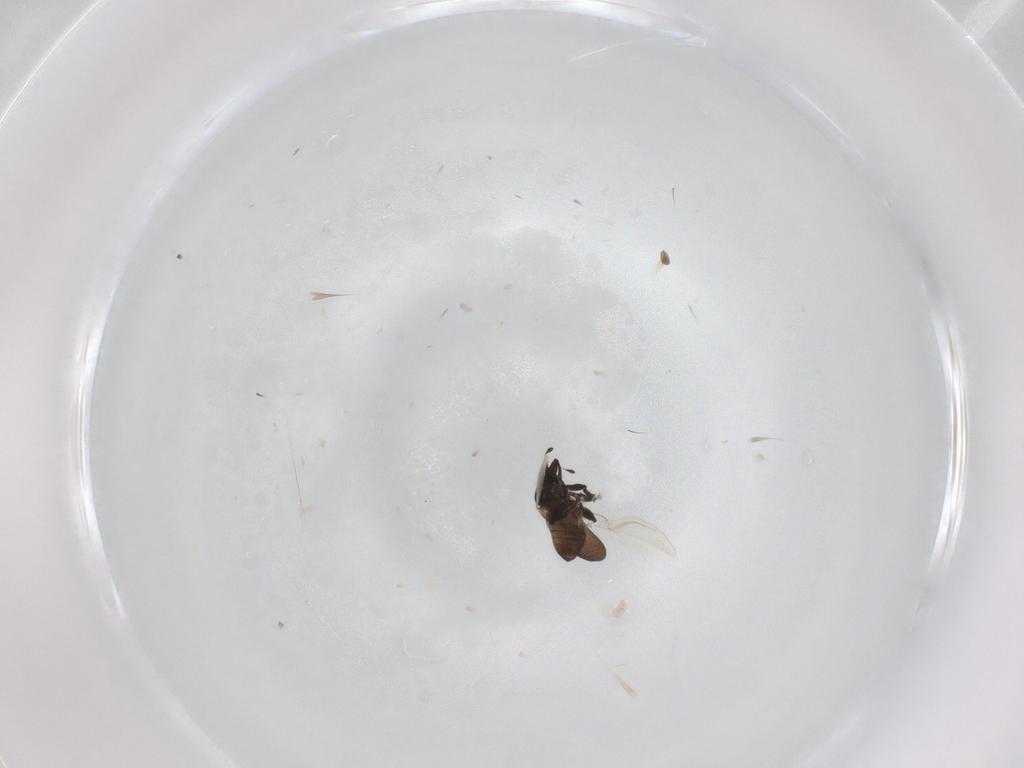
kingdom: Animalia
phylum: Arthropoda
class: Insecta
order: Coleoptera
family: Curculionidae
